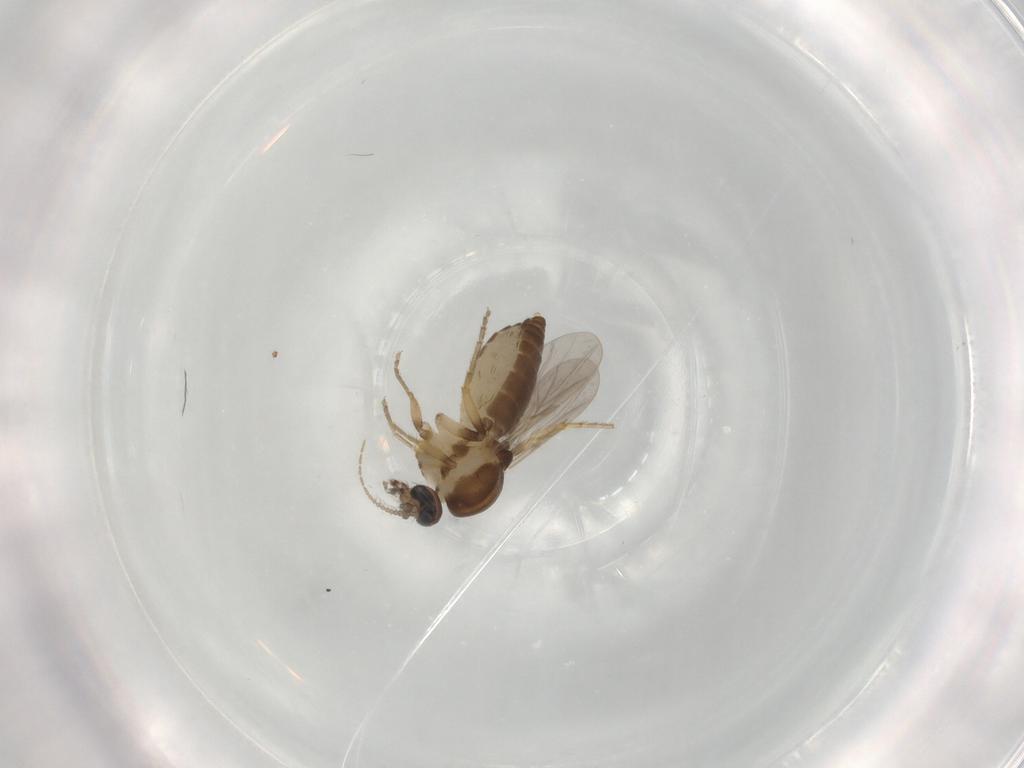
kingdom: Animalia
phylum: Arthropoda
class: Insecta
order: Diptera
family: Ceratopogonidae
